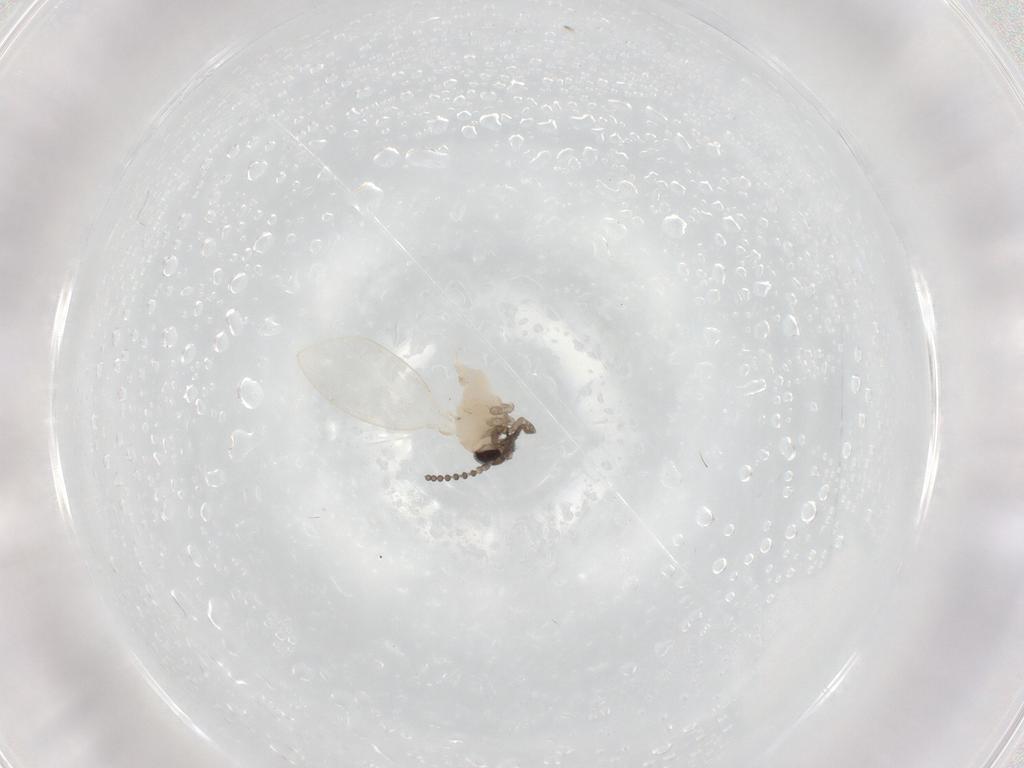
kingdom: Animalia
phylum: Arthropoda
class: Insecta
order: Diptera
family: Psychodidae
